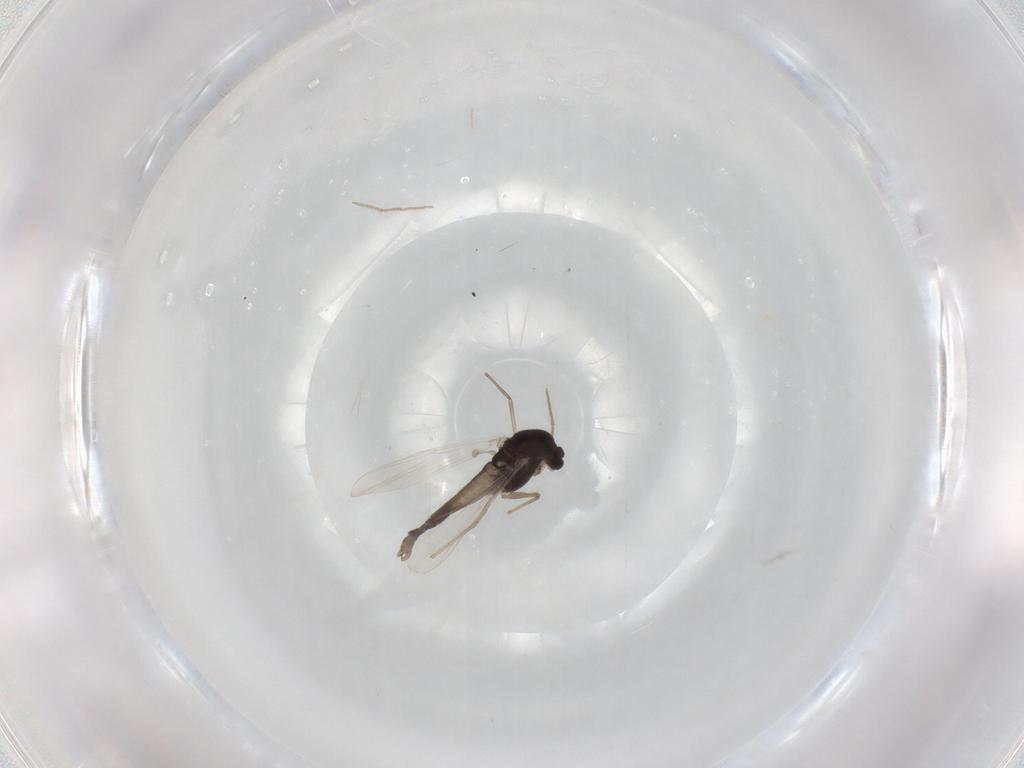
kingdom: Animalia
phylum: Arthropoda
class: Insecta
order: Diptera
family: Chironomidae
